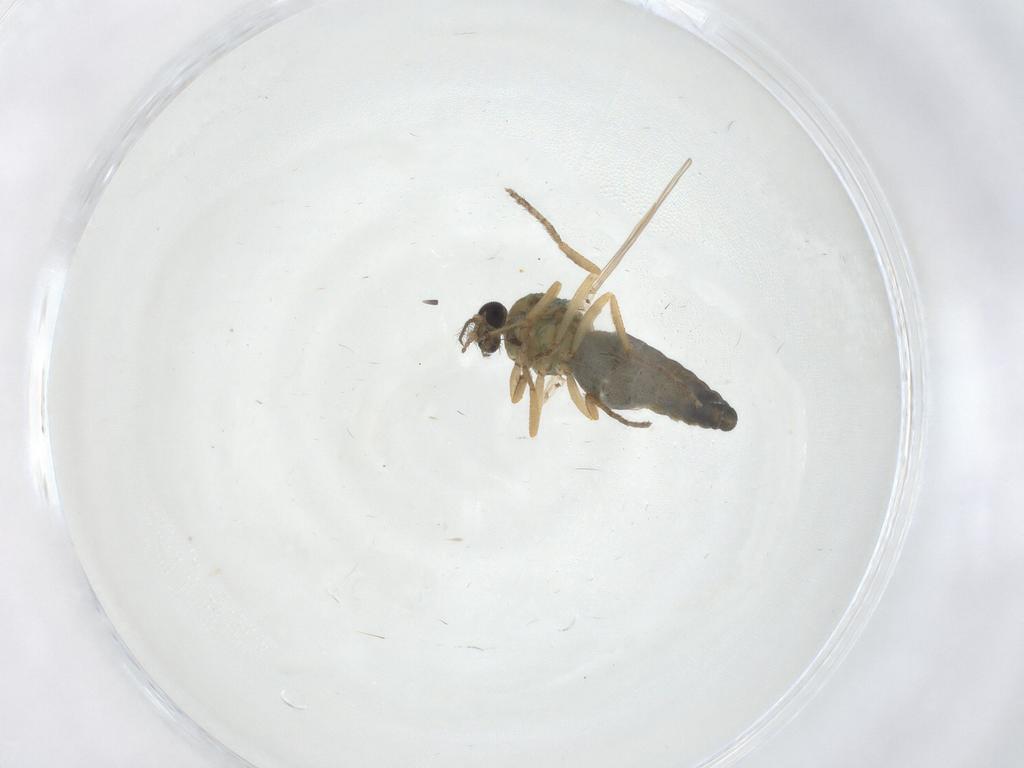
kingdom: Animalia
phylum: Arthropoda
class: Insecta
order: Diptera
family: Ceratopogonidae
